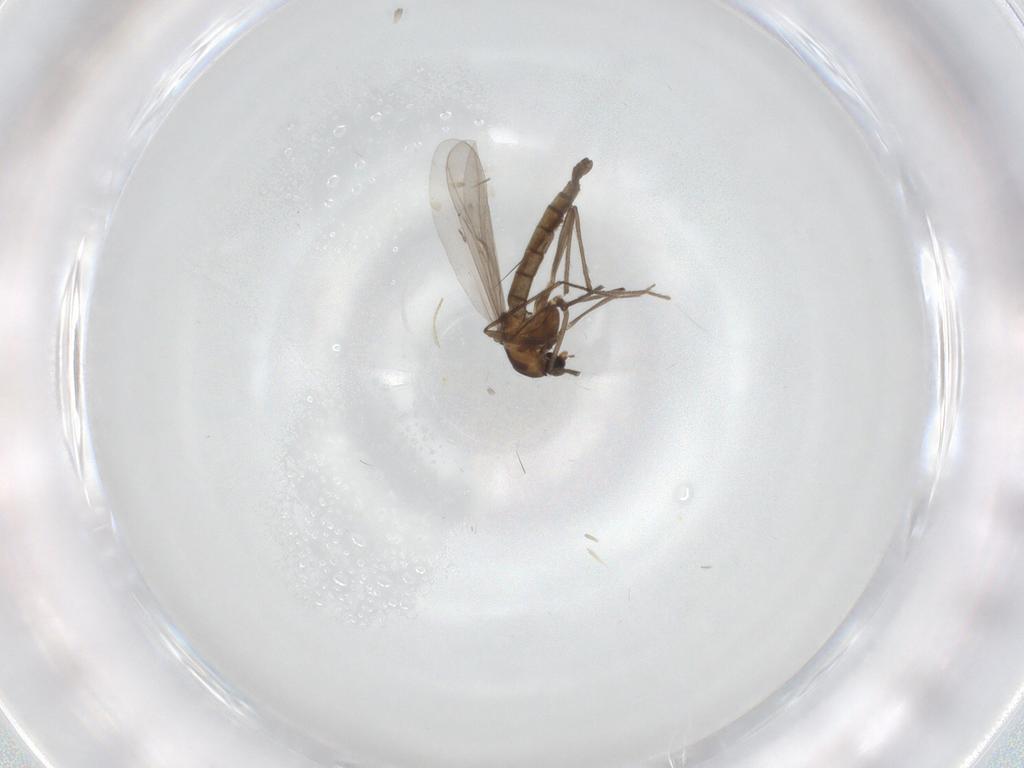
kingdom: Animalia
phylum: Arthropoda
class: Insecta
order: Diptera
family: Chironomidae
